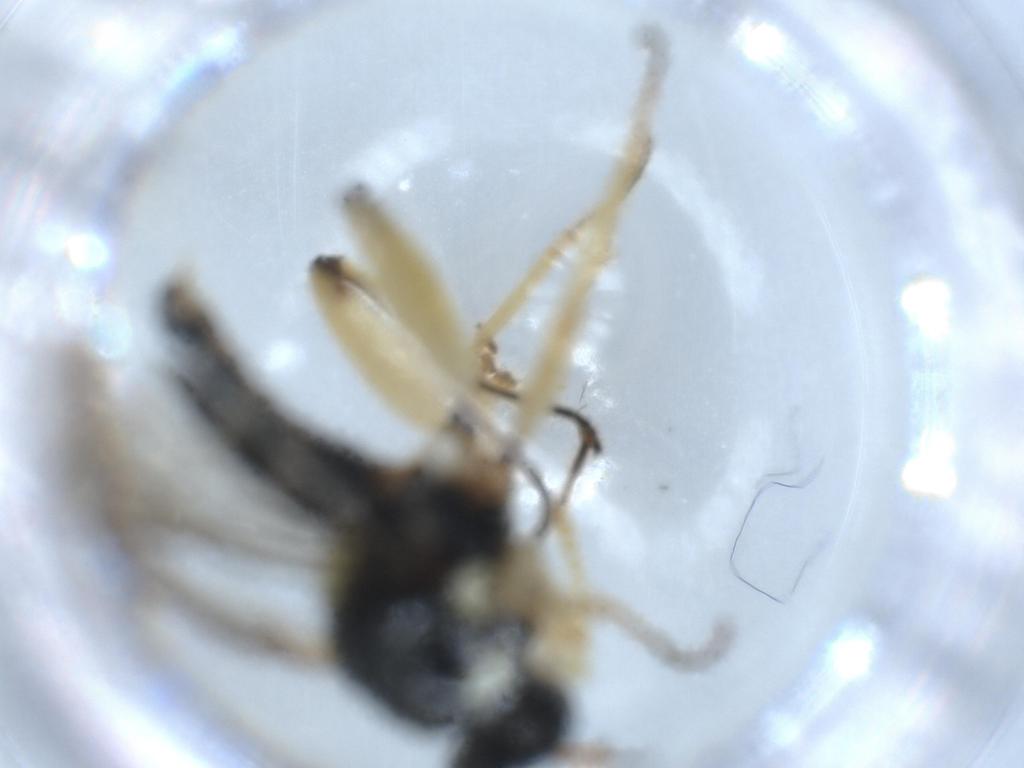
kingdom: Animalia
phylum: Arthropoda
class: Insecta
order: Diptera
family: Sciaridae
